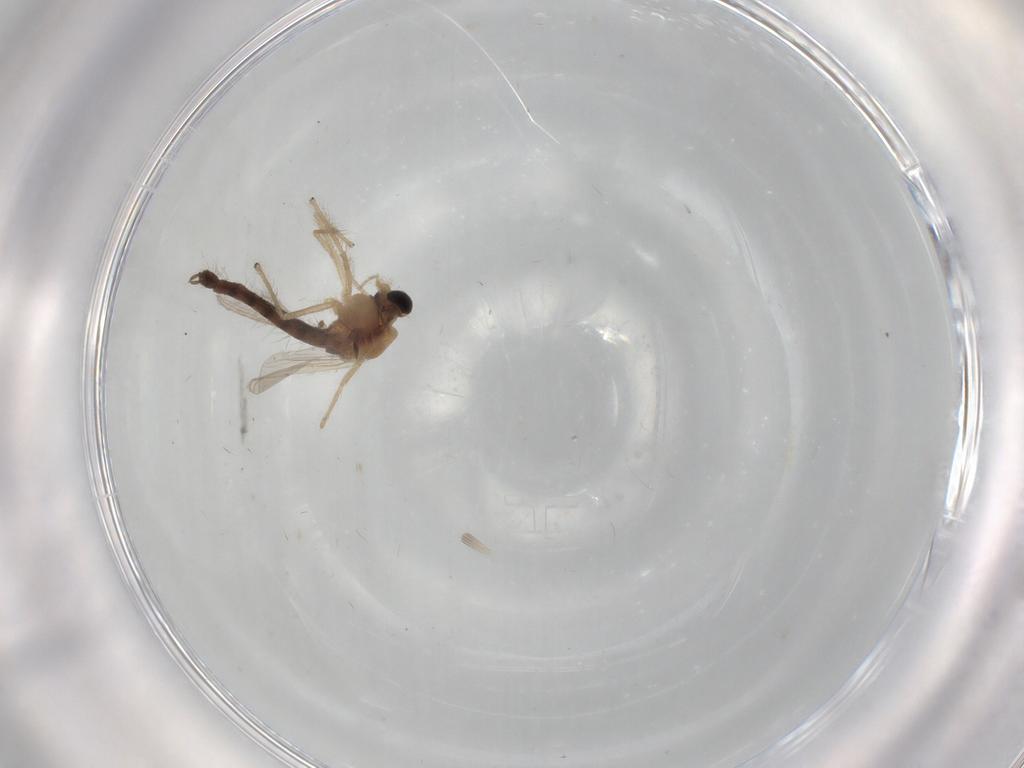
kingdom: Animalia
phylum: Arthropoda
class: Insecta
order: Diptera
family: Chironomidae
